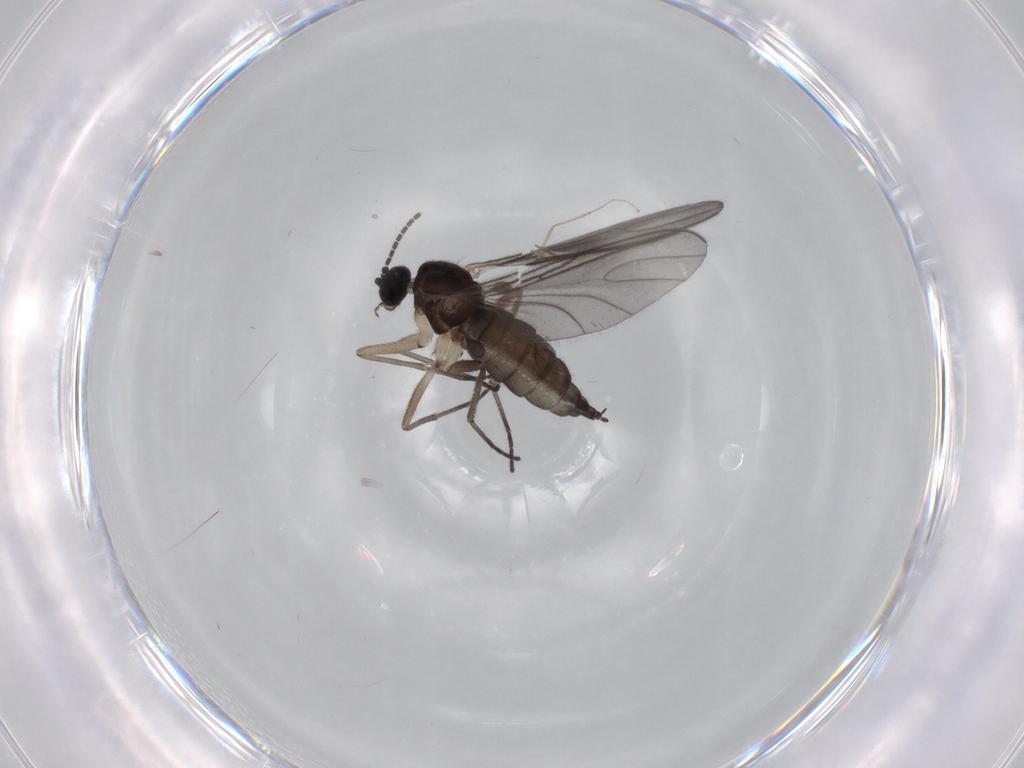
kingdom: Animalia
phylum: Arthropoda
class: Insecta
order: Diptera
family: Sciaridae
